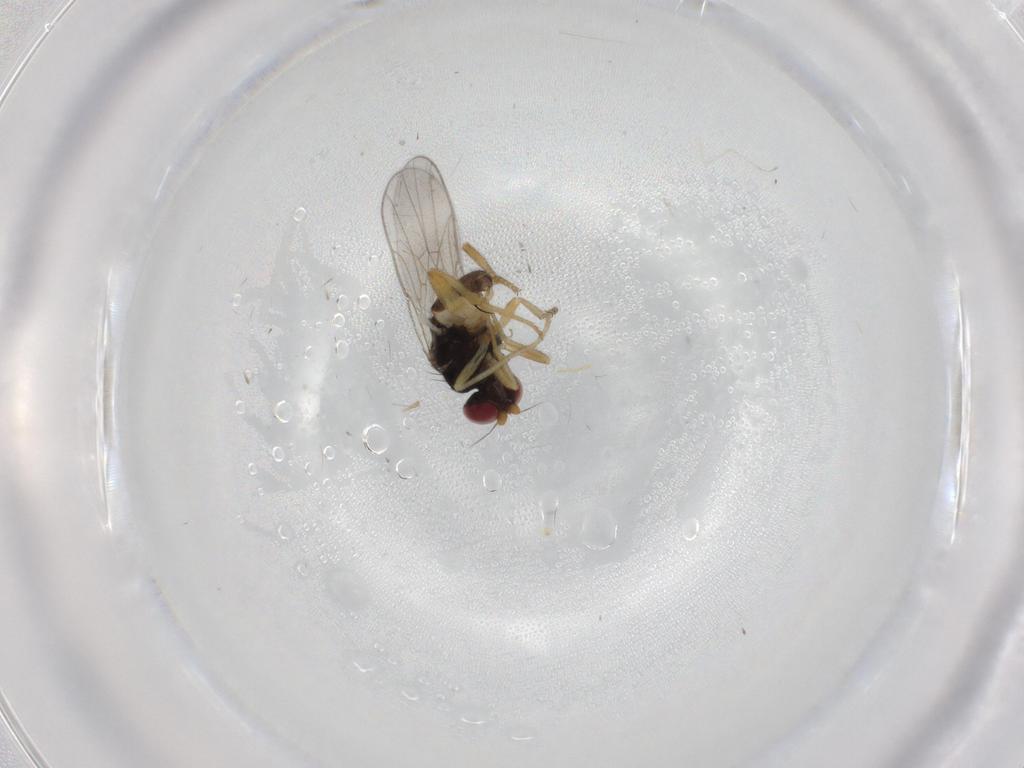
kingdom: Animalia
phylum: Arthropoda
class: Insecta
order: Diptera
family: Chloropidae
